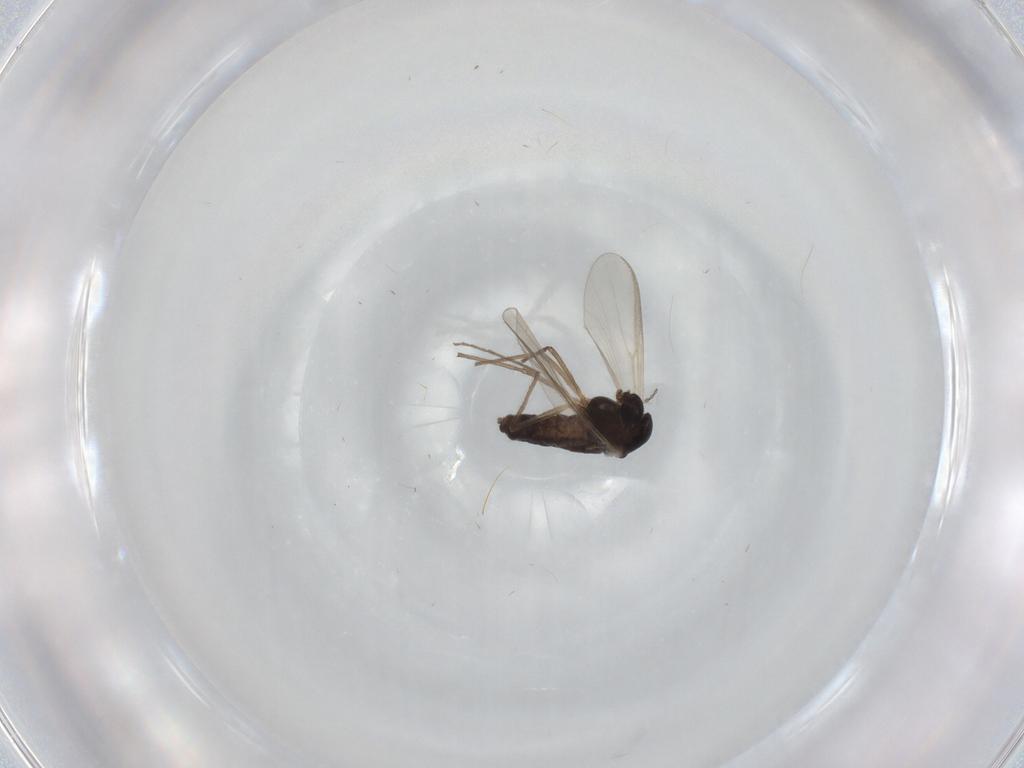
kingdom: Animalia
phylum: Arthropoda
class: Insecta
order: Diptera
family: Chironomidae
